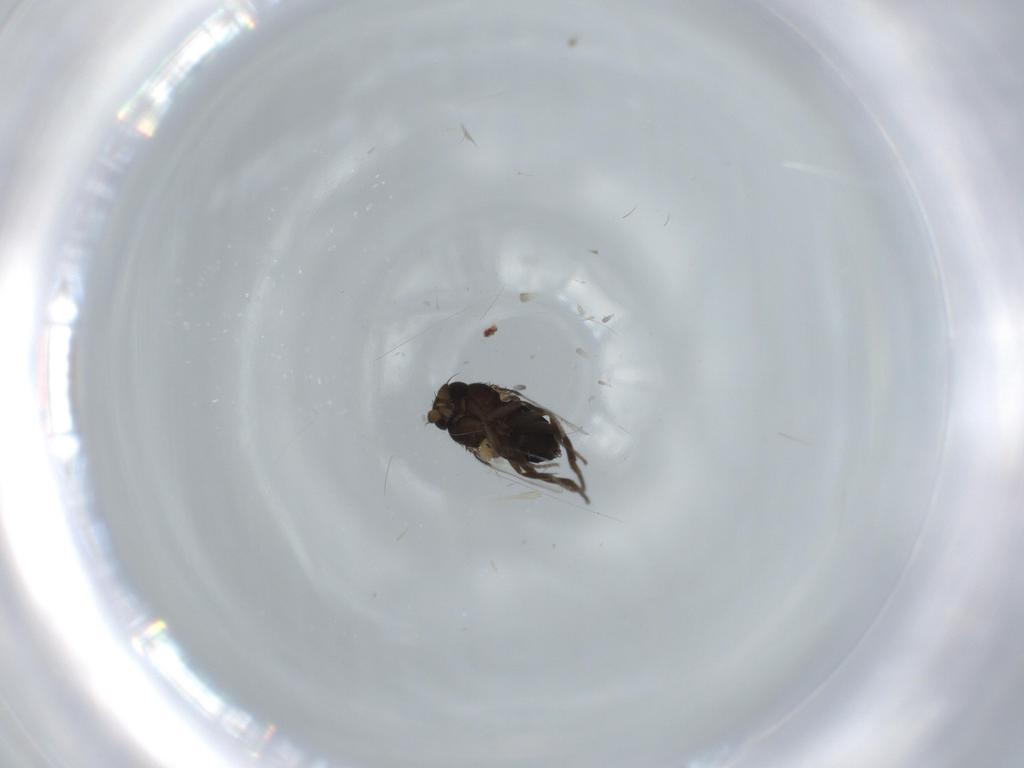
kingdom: Animalia
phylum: Arthropoda
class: Insecta
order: Diptera
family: Phoridae
